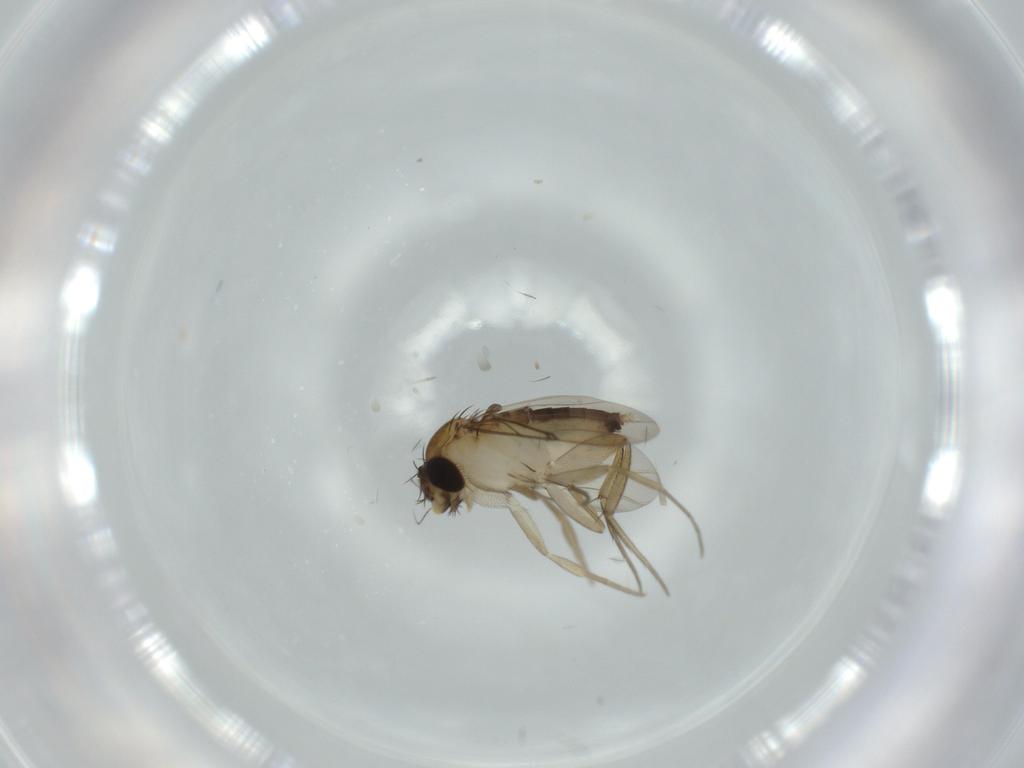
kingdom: Animalia
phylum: Arthropoda
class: Insecta
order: Diptera
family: Phoridae
